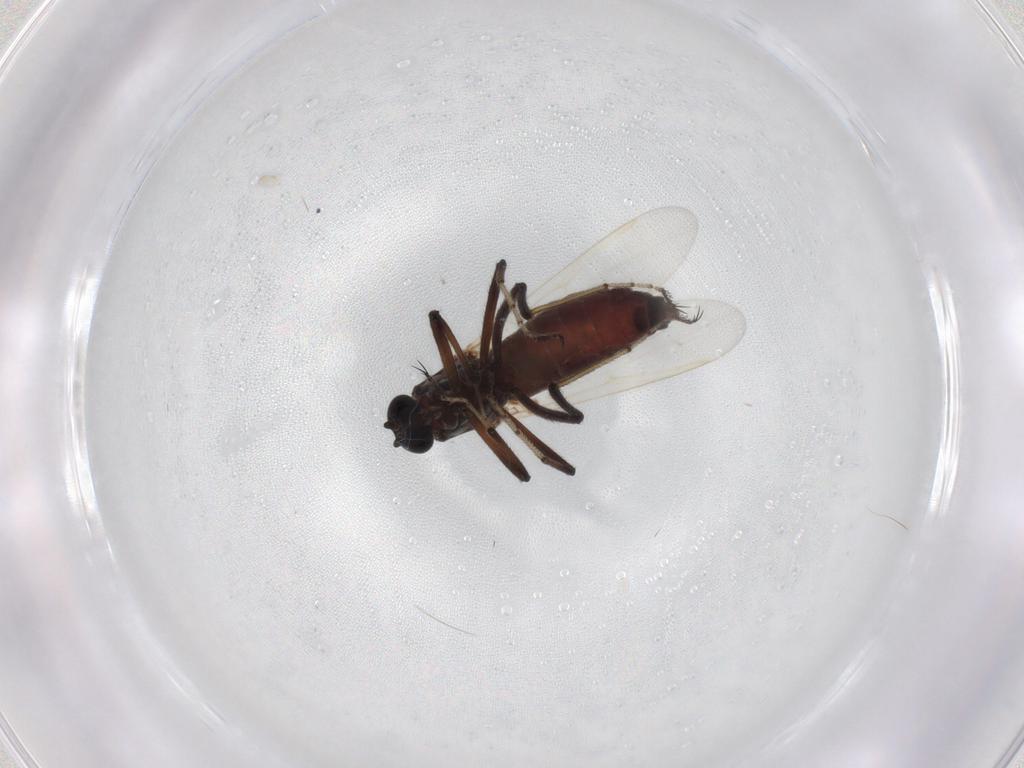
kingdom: Animalia
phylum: Arthropoda
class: Insecta
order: Diptera
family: Ceratopogonidae
